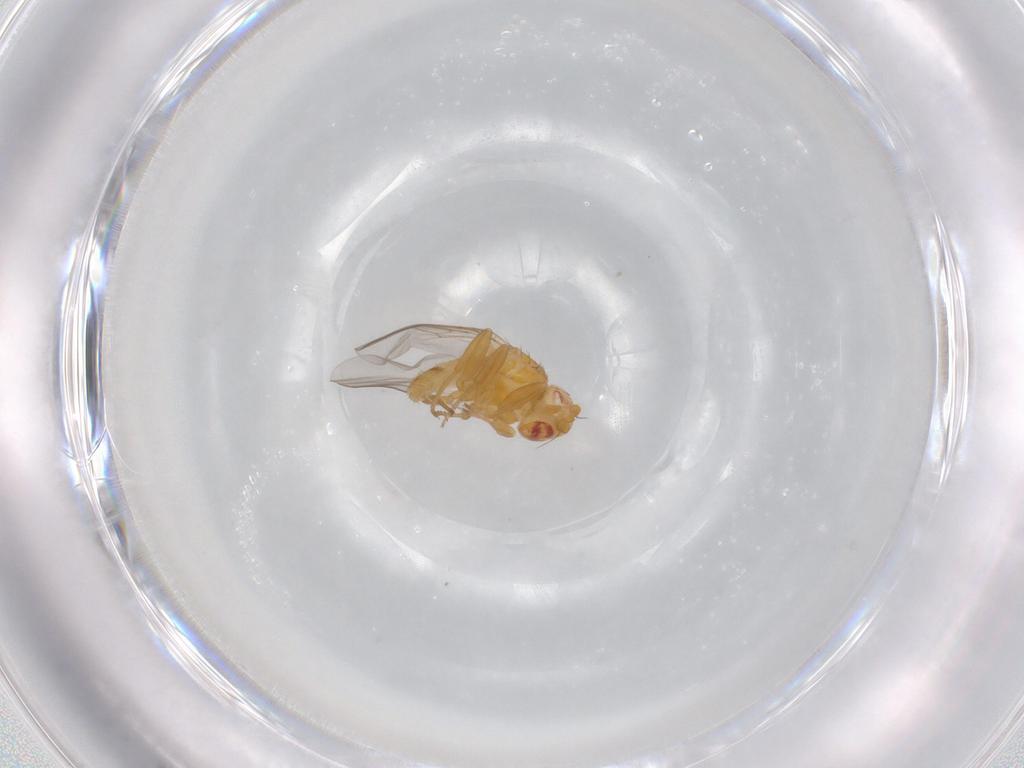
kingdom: Animalia
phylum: Arthropoda
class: Insecta
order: Diptera
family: Chloropidae
